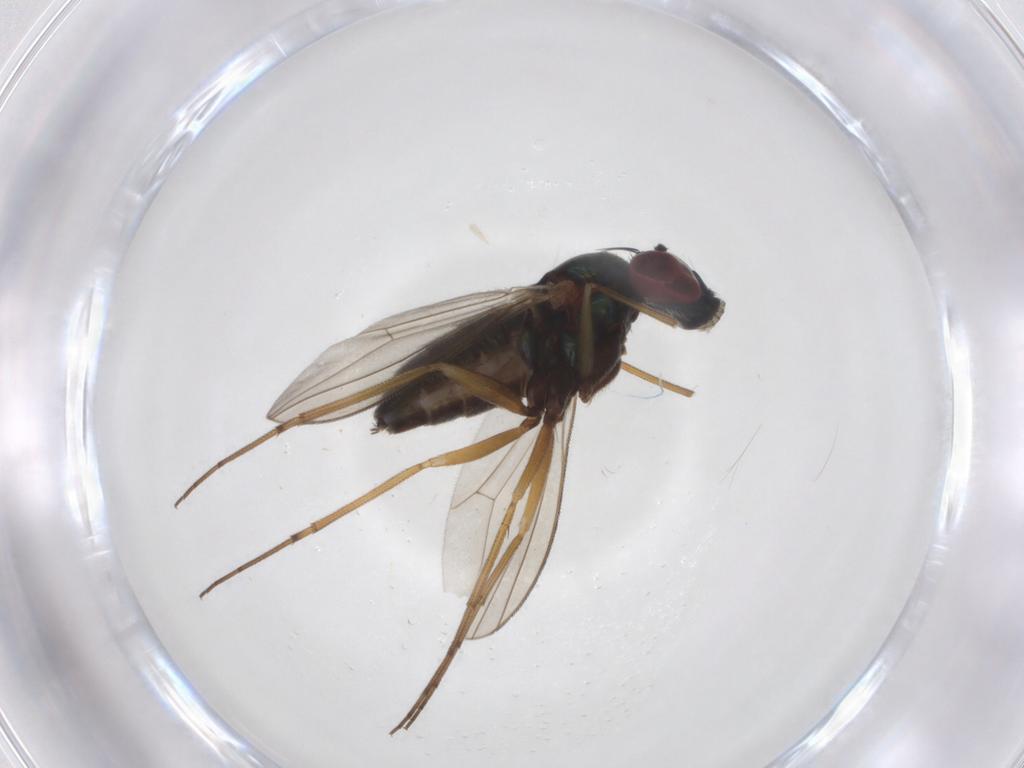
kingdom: Animalia
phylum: Arthropoda
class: Insecta
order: Diptera
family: Dolichopodidae
